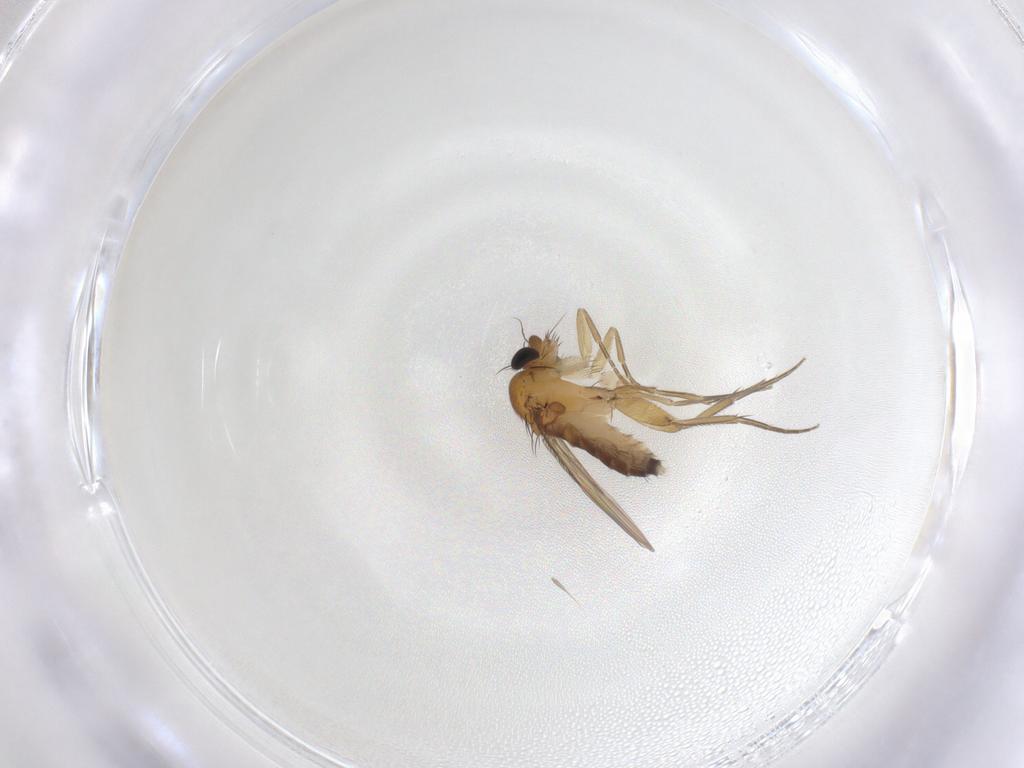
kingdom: Animalia
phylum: Arthropoda
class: Insecta
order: Diptera
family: Phoridae
